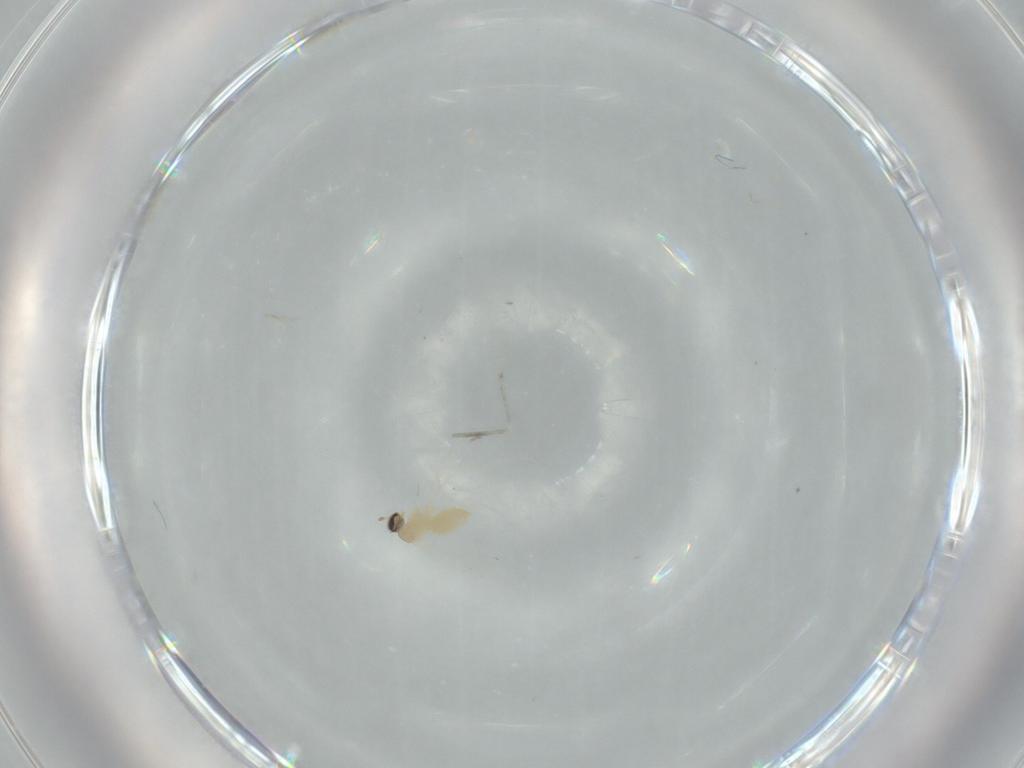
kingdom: Animalia
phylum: Arthropoda
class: Insecta
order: Diptera
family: Cecidomyiidae
